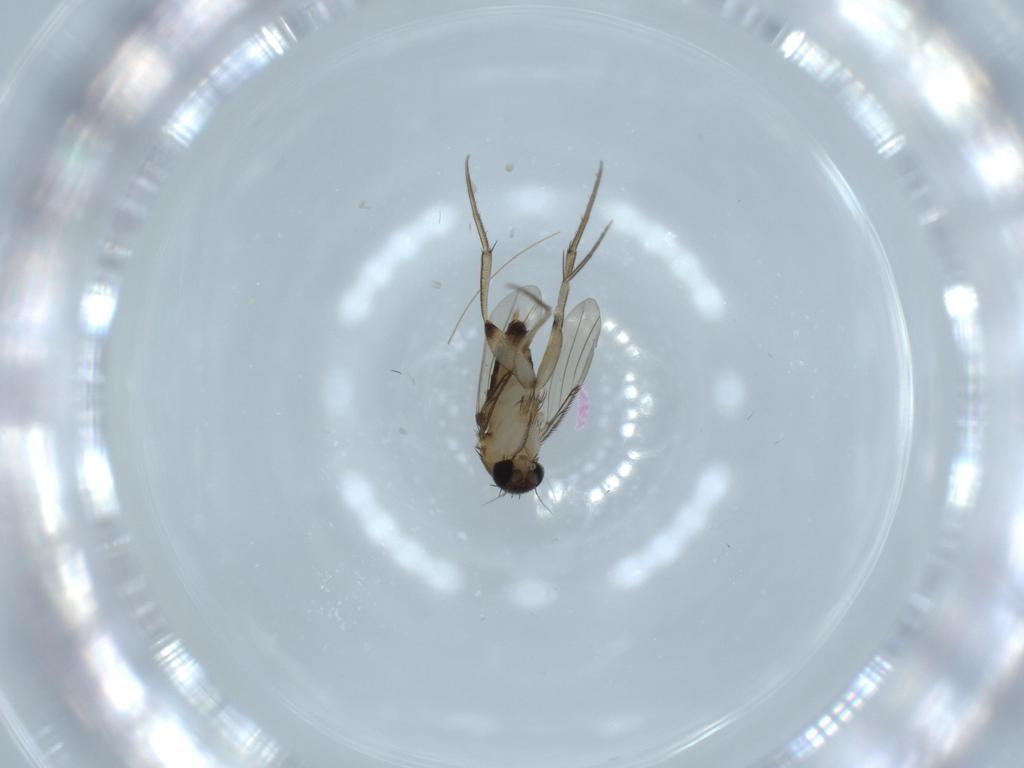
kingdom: Animalia
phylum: Arthropoda
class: Insecta
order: Diptera
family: Phoridae
